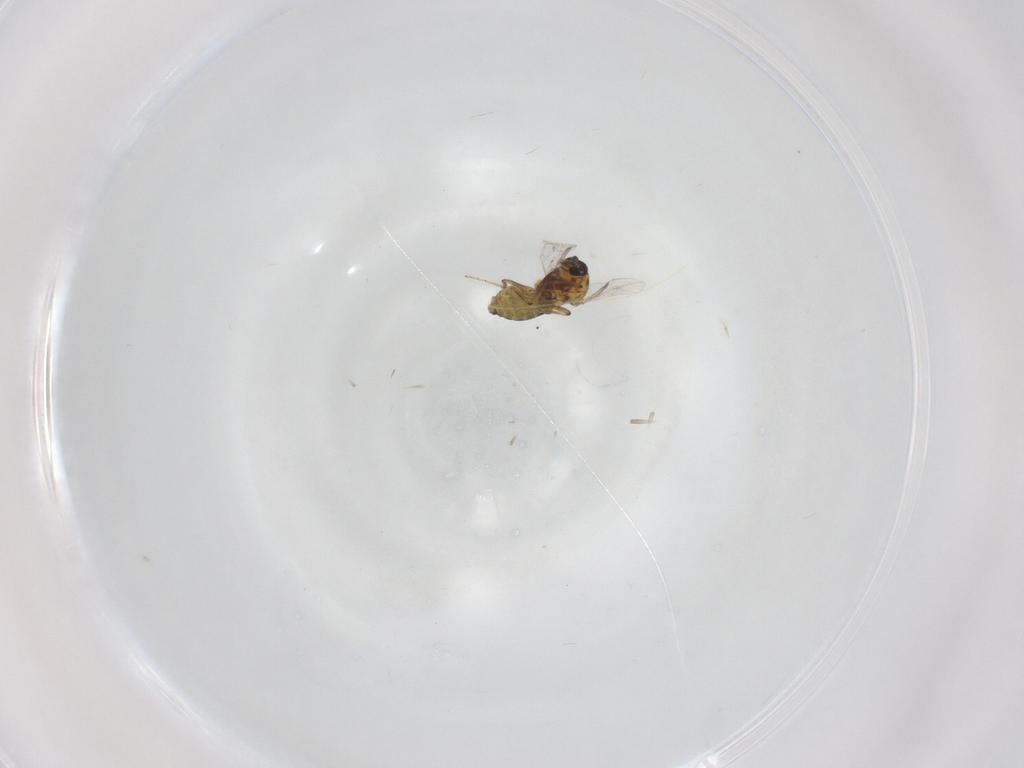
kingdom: Animalia
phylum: Arthropoda
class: Insecta
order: Diptera
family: Ceratopogonidae
